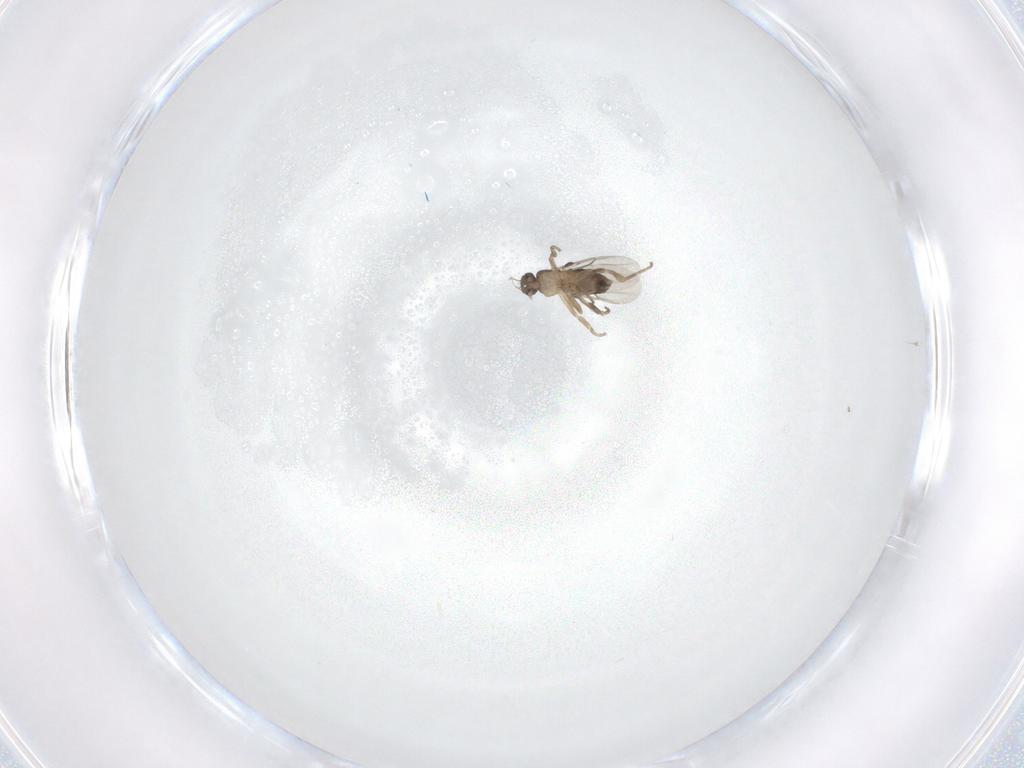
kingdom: Animalia
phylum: Arthropoda
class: Insecta
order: Diptera
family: Phoridae
